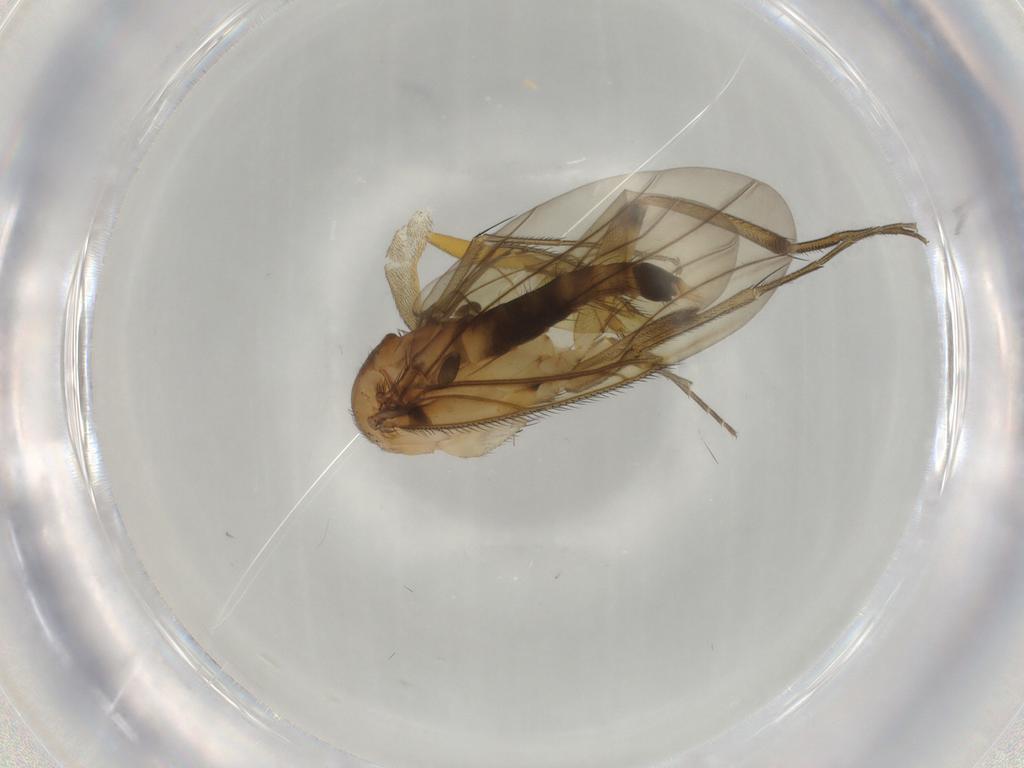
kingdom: Animalia
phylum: Arthropoda
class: Insecta
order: Diptera
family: Phoridae
